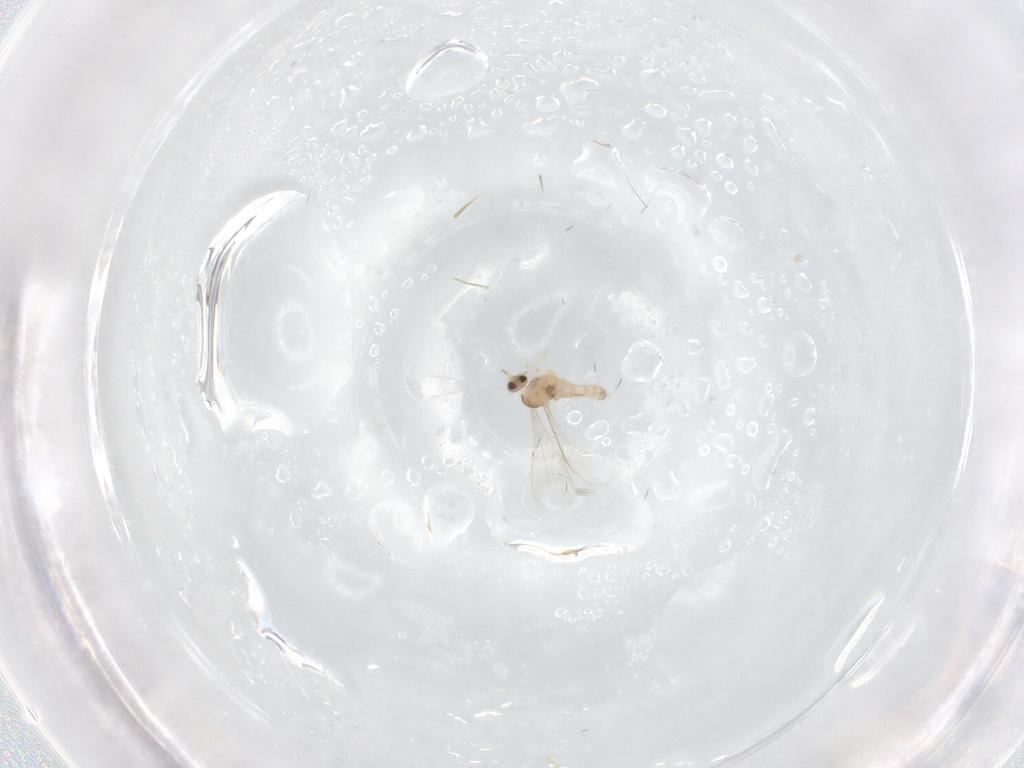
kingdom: Animalia
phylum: Arthropoda
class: Insecta
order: Diptera
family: Cecidomyiidae
